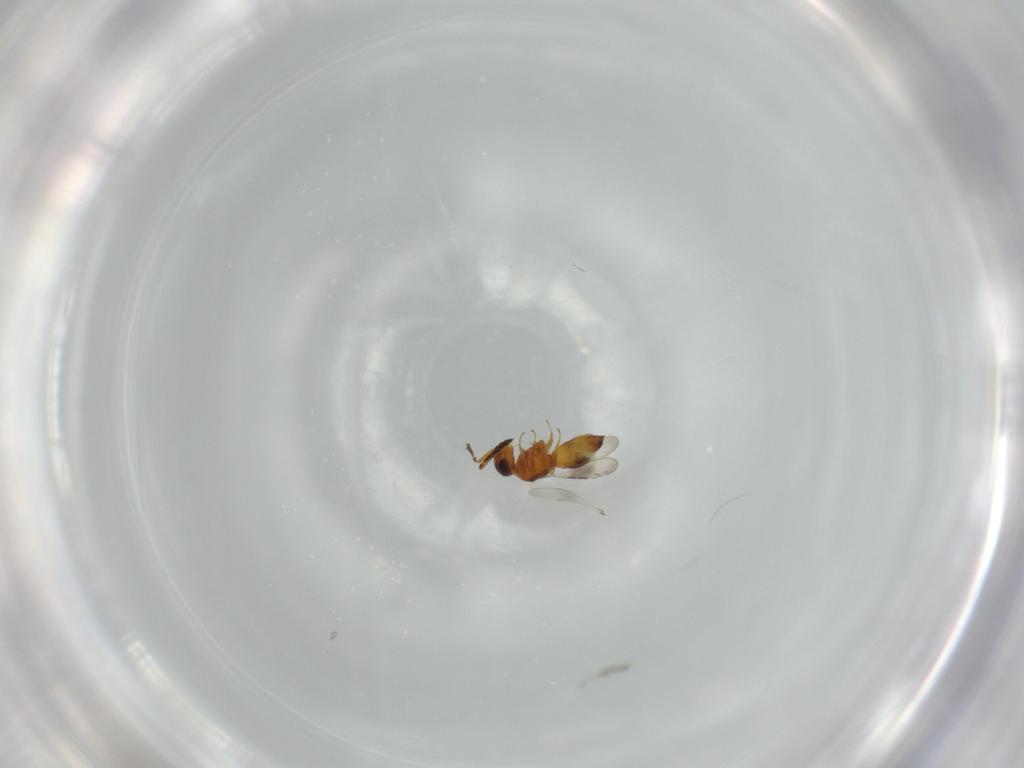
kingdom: Animalia
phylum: Arthropoda
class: Insecta
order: Hymenoptera
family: Ceraphronidae
